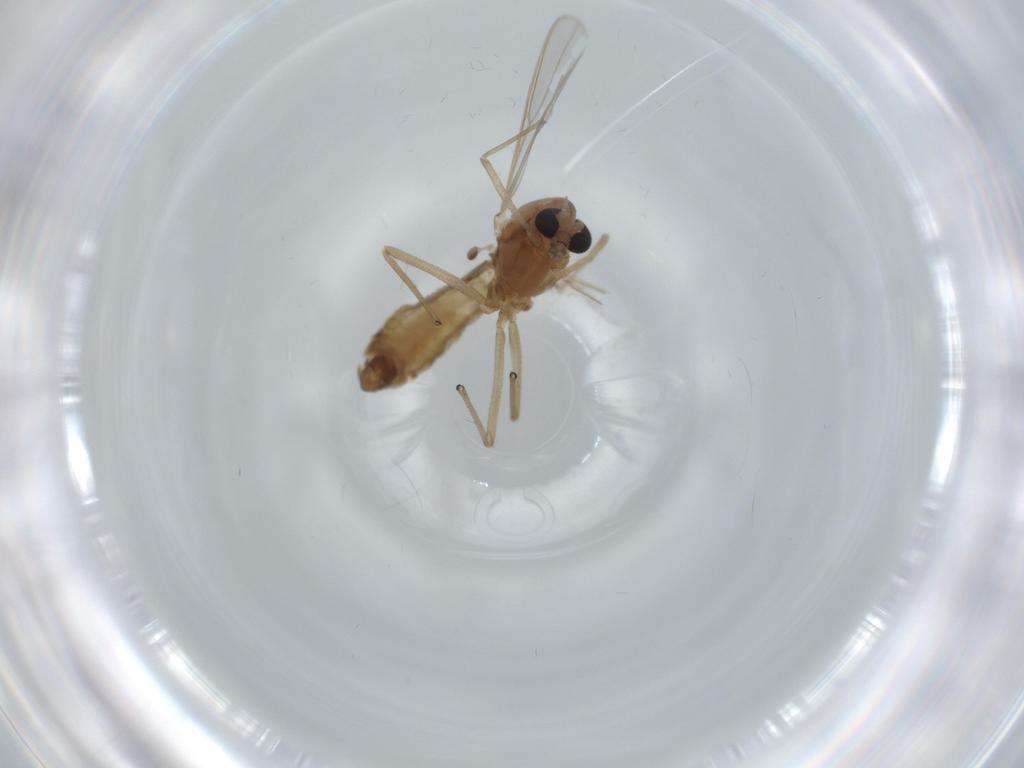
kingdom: Animalia
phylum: Arthropoda
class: Insecta
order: Diptera
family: Chironomidae
